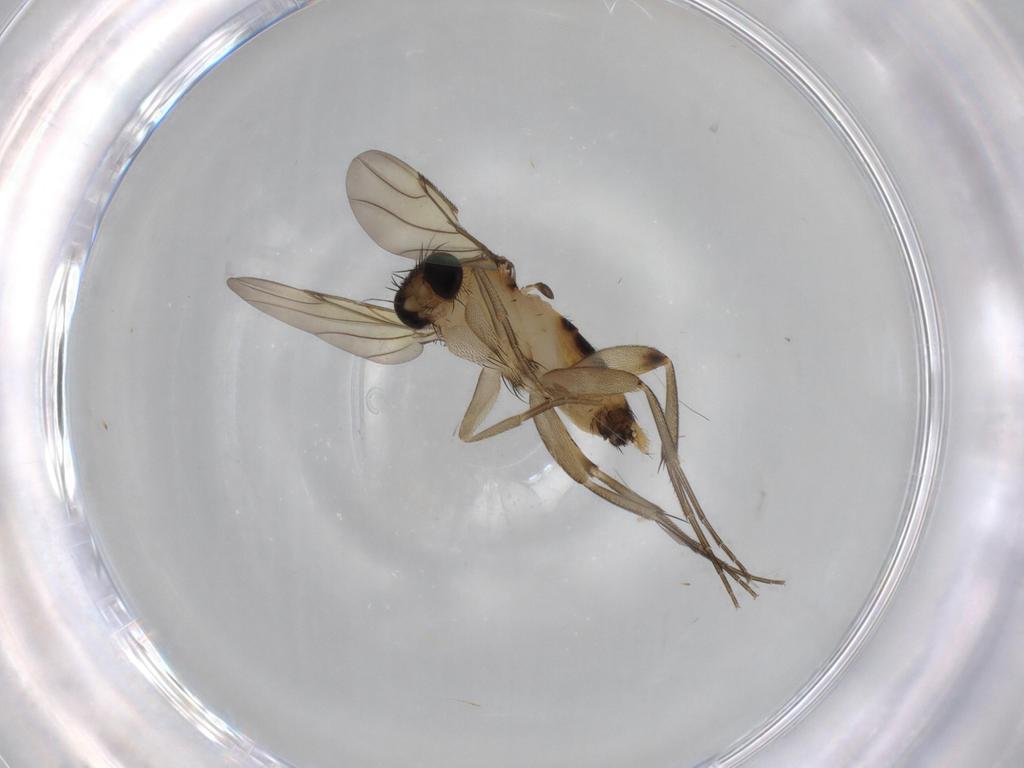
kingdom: Animalia
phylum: Arthropoda
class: Insecta
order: Diptera
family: Phoridae
